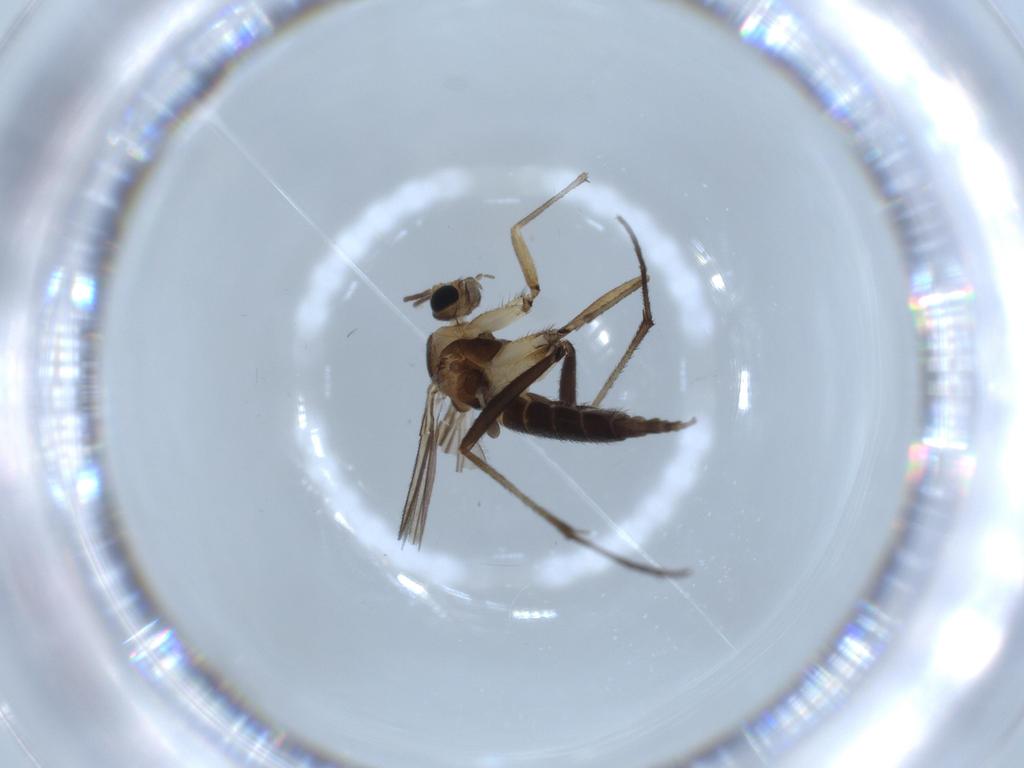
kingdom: Animalia
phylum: Arthropoda
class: Insecta
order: Diptera
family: Sciaridae
